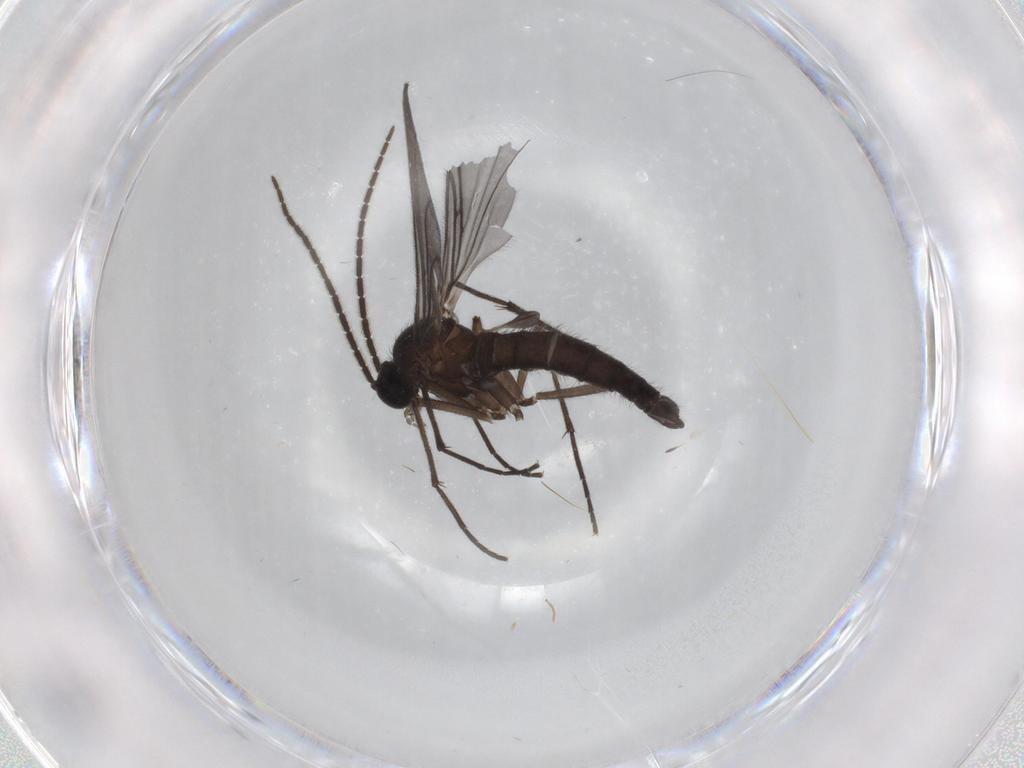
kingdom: Animalia
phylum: Arthropoda
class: Insecta
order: Diptera
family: Sciaridae
